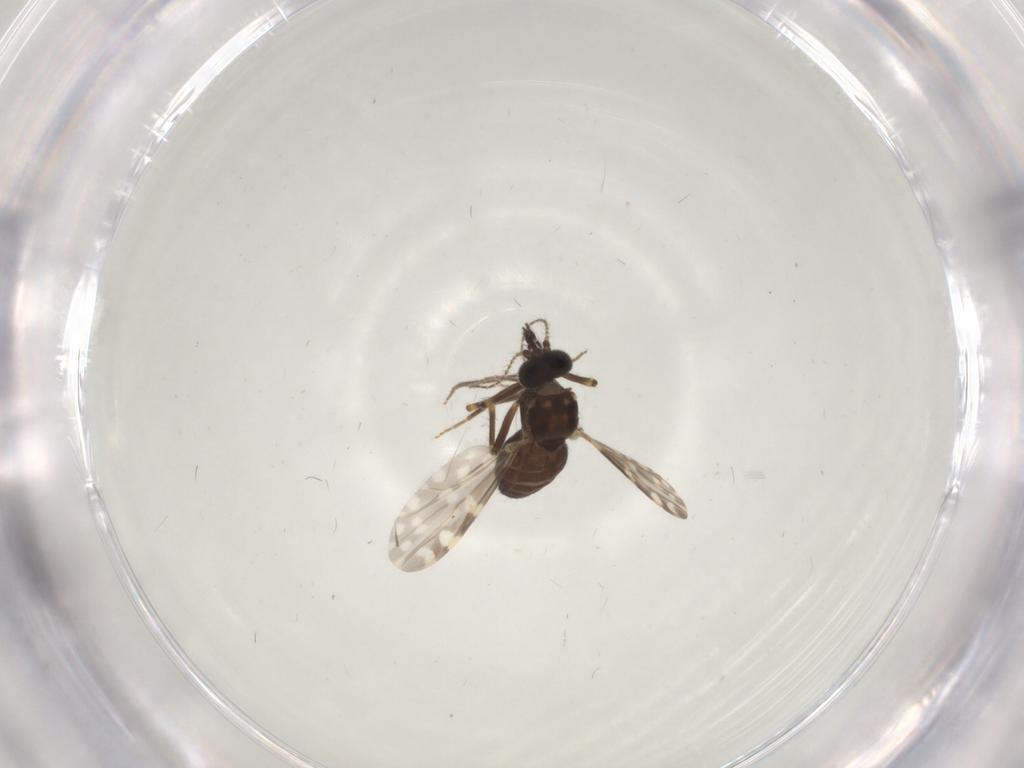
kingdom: Animalia
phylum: Arthropoda
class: Insecta
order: Diptera
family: Ceratopogonidae
